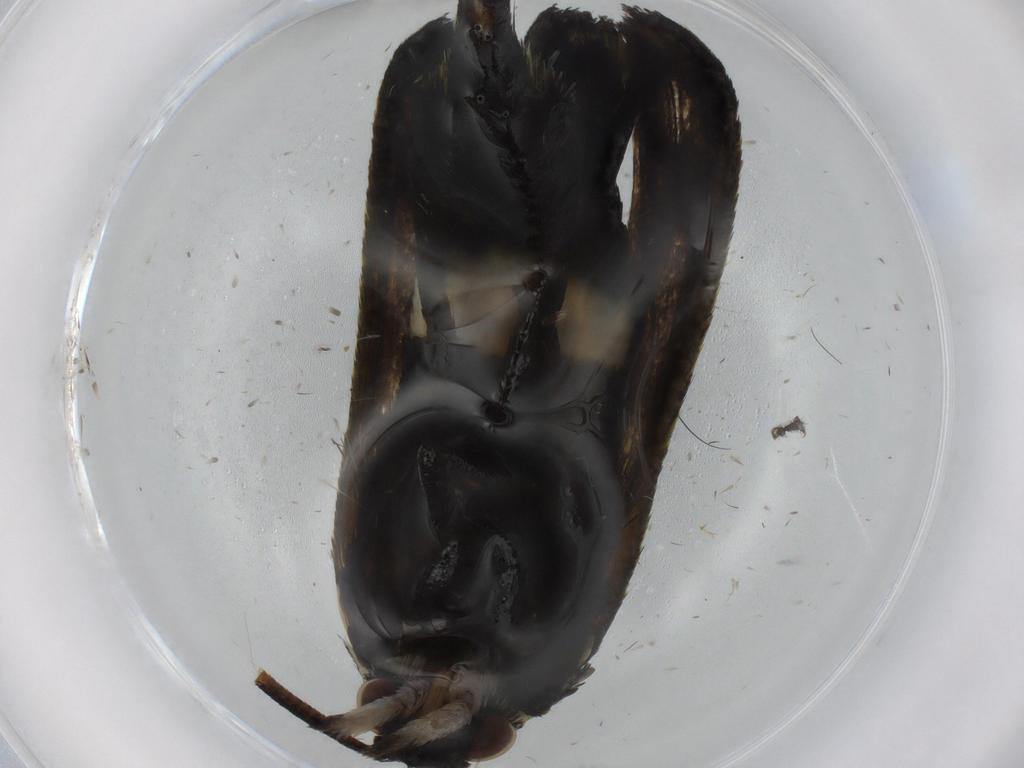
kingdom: Animalia
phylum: Arthropoda
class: Insecta
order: Lepidoptera
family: Sesiidae
